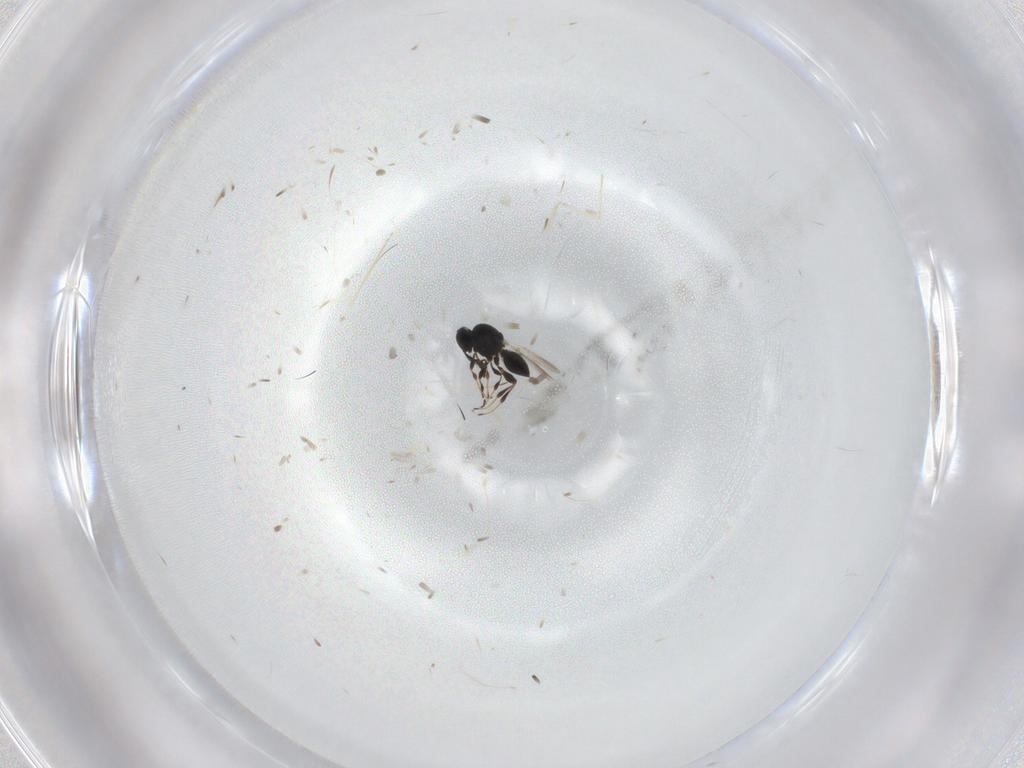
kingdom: Animalia
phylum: Arthropoda
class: Insecta
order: Hymenoptera
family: Platygastridae
